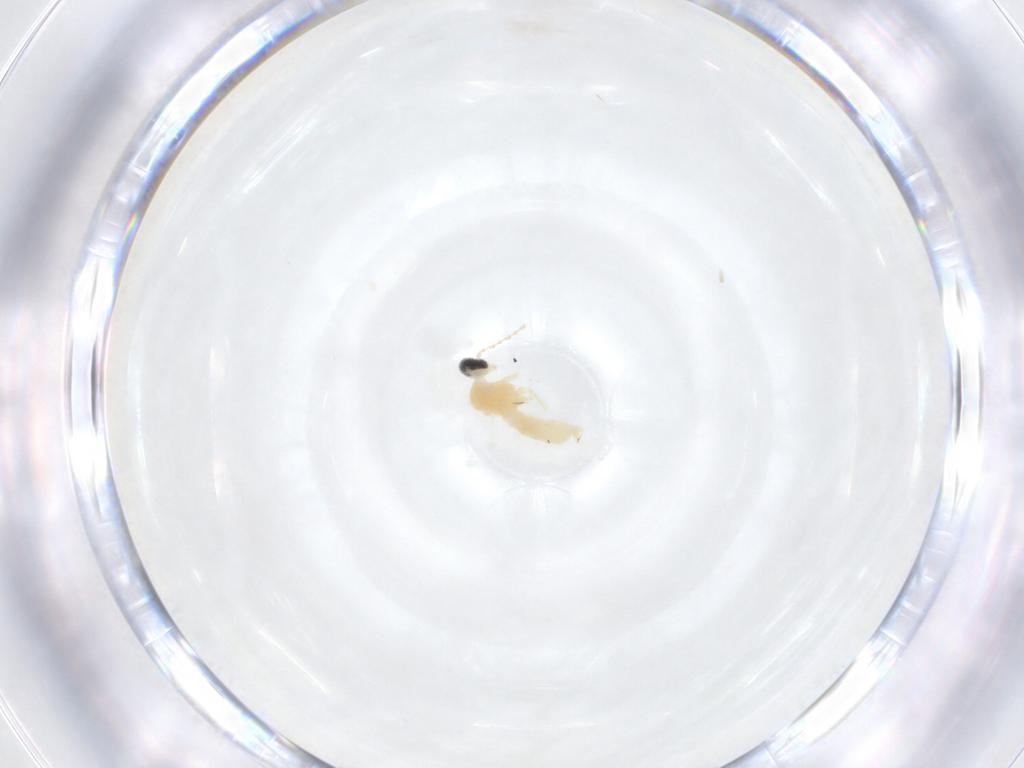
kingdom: Animalia
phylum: Arthropoda
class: Insecta
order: Diptera
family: Cecidomyiidae
